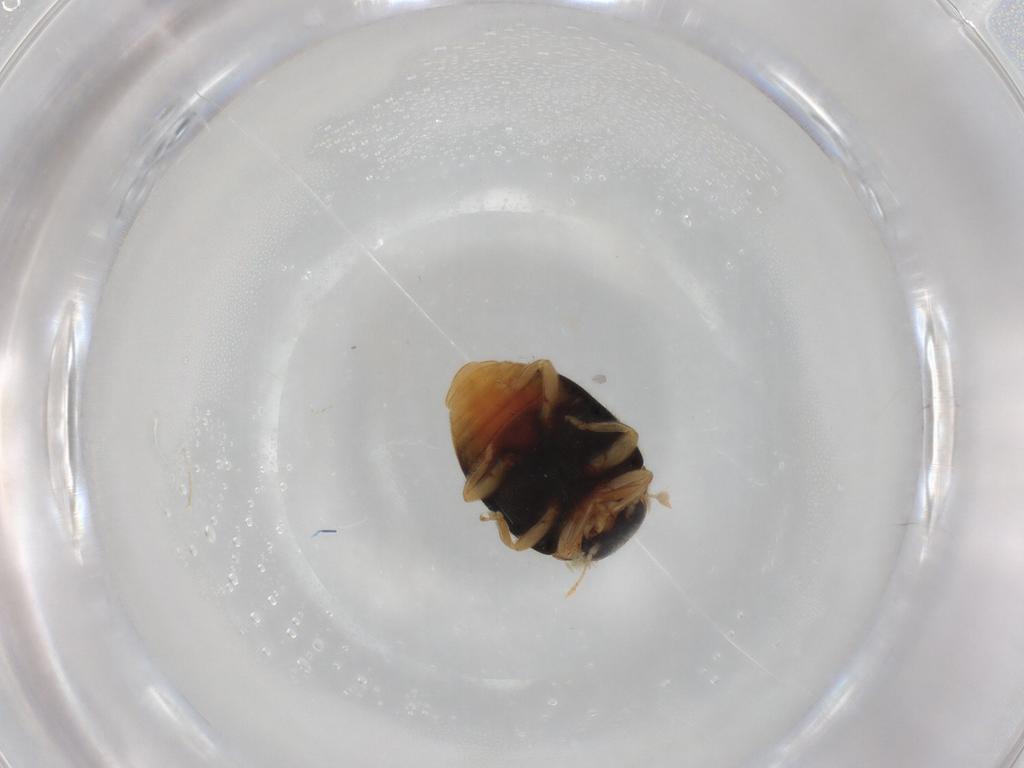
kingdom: Animalia
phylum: Arthropoda
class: Insecta
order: Coleoptera
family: Coccinellidae
